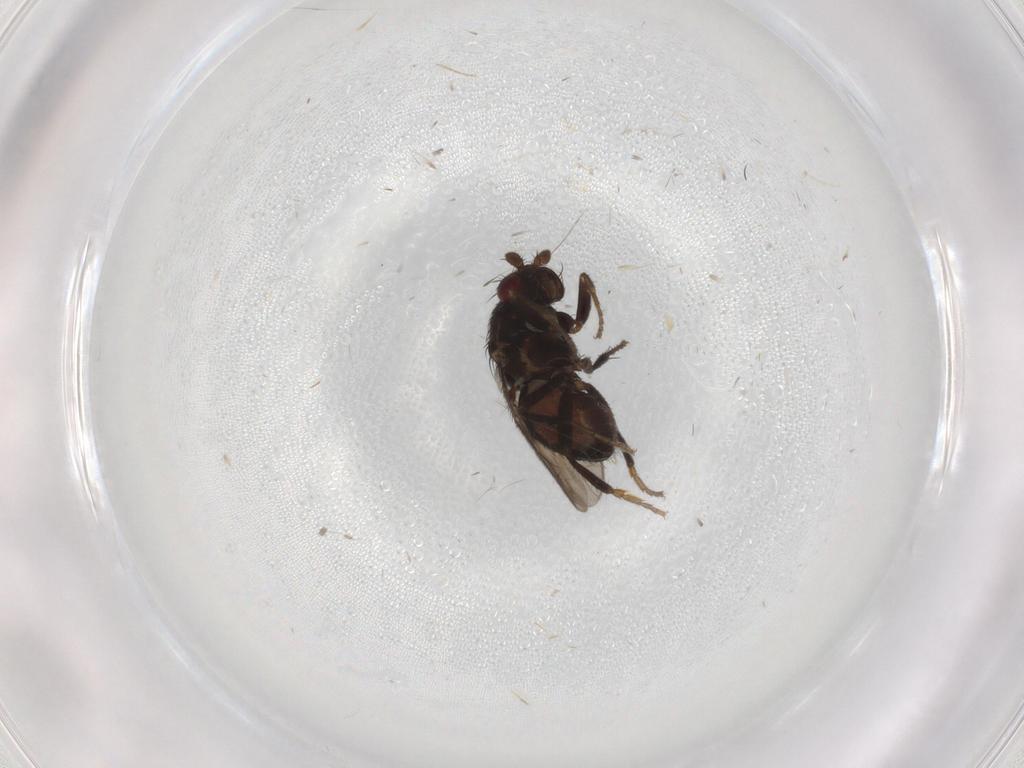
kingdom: Animalia
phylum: Arthropoda
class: Insecta
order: Diptera
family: Sphaeroceridae
